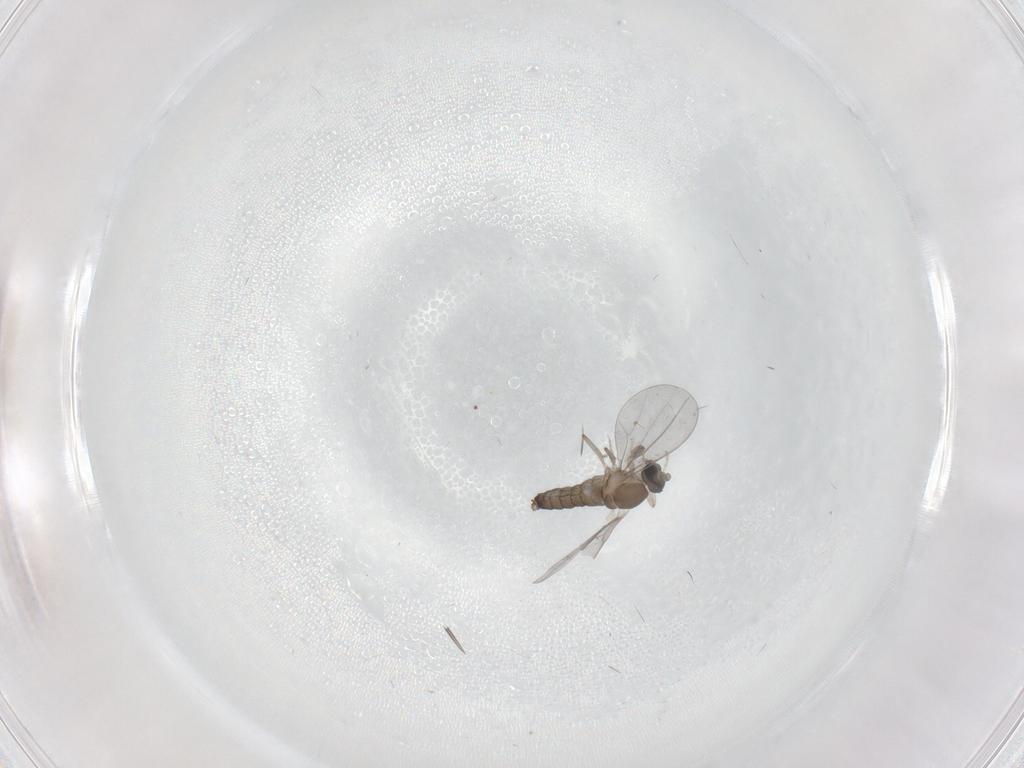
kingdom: Animalia
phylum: Arthropoda
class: Insecta
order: Diptera
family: Cecidomyiidae
